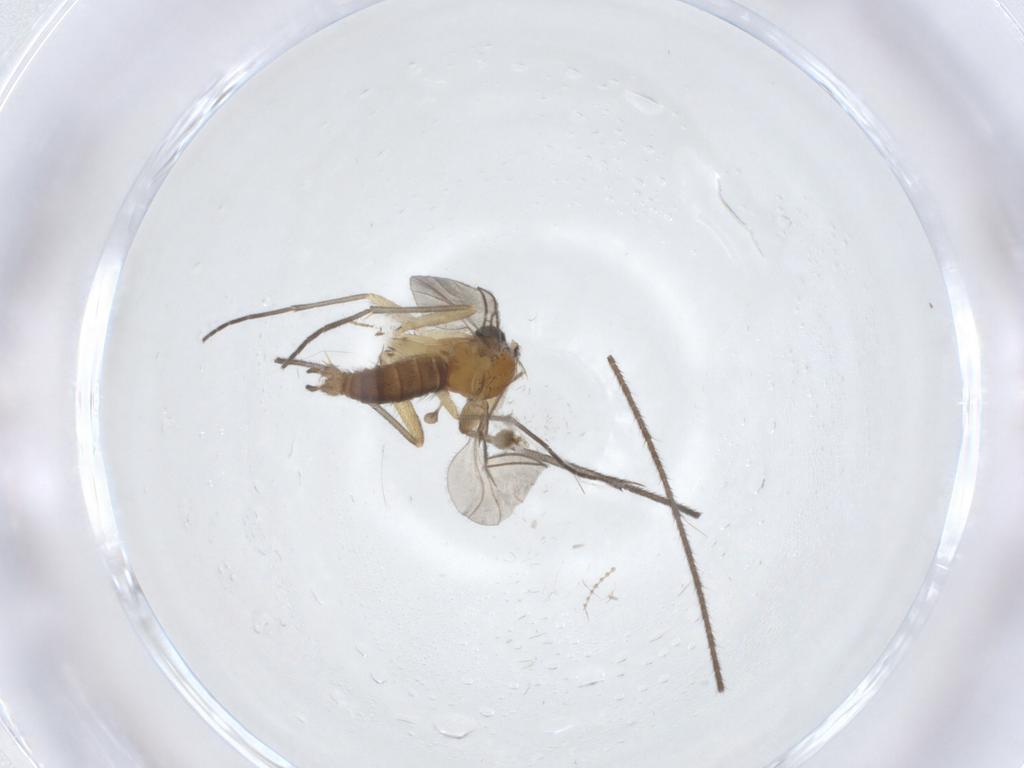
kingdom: Animalia
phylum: Arthropoda
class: Insecta
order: Diptera
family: Sciaridae
